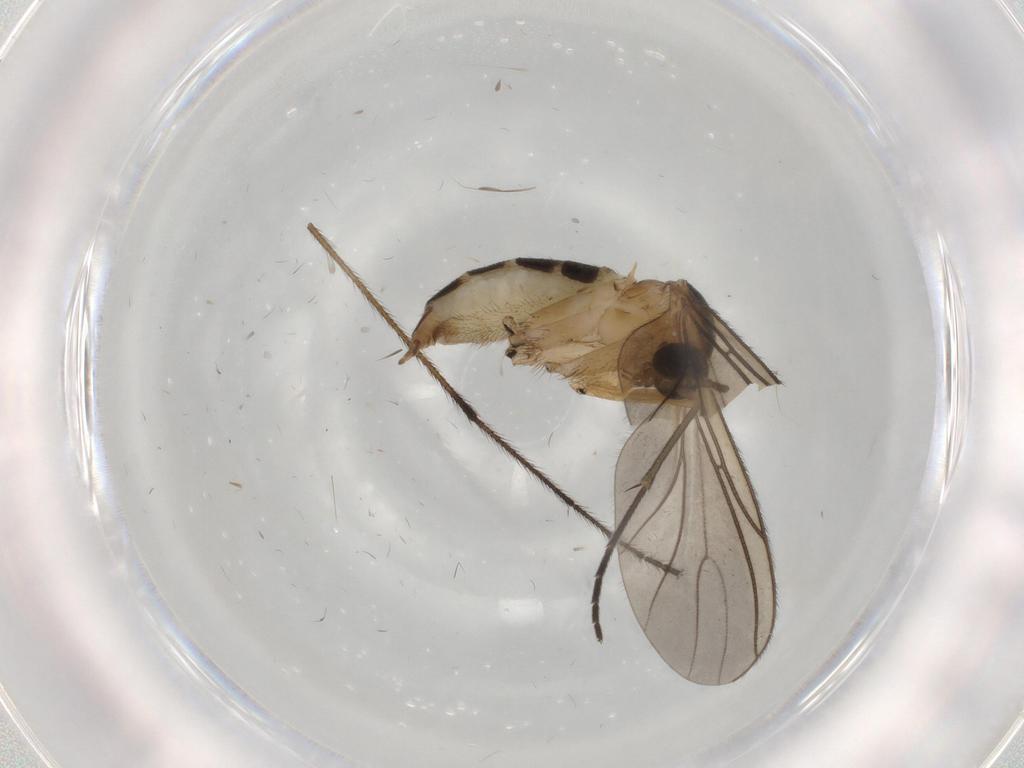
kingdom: Animalia
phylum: Arthropoda
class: Insecta
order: Diptera
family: Sciaridae
